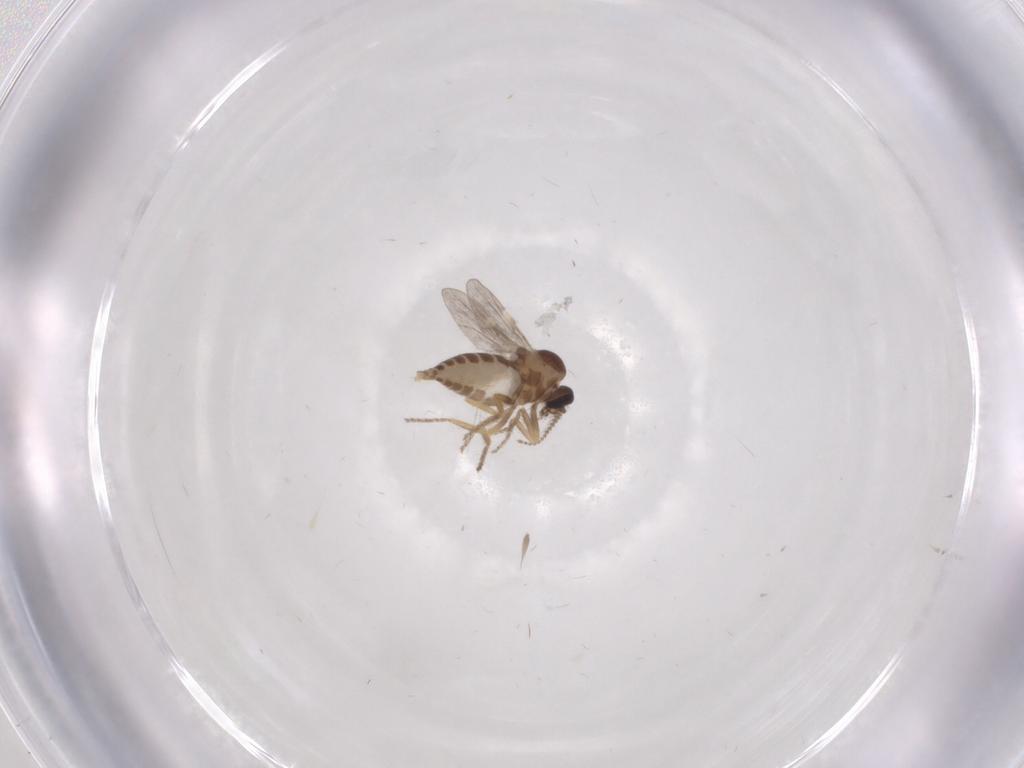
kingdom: Animalia
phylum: Arthropoda
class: Insecta
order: Diptera
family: Ceratopogonidae
